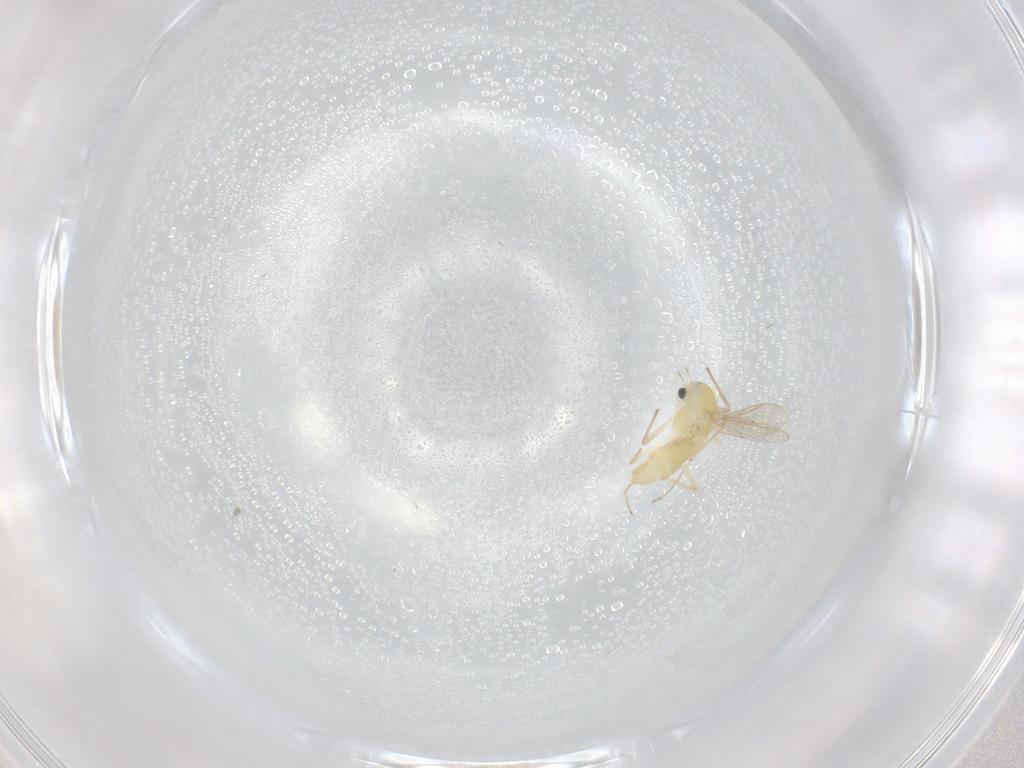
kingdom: Animalia
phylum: Arthropoda
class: Insecta
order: Diptera
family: Chironomidae
